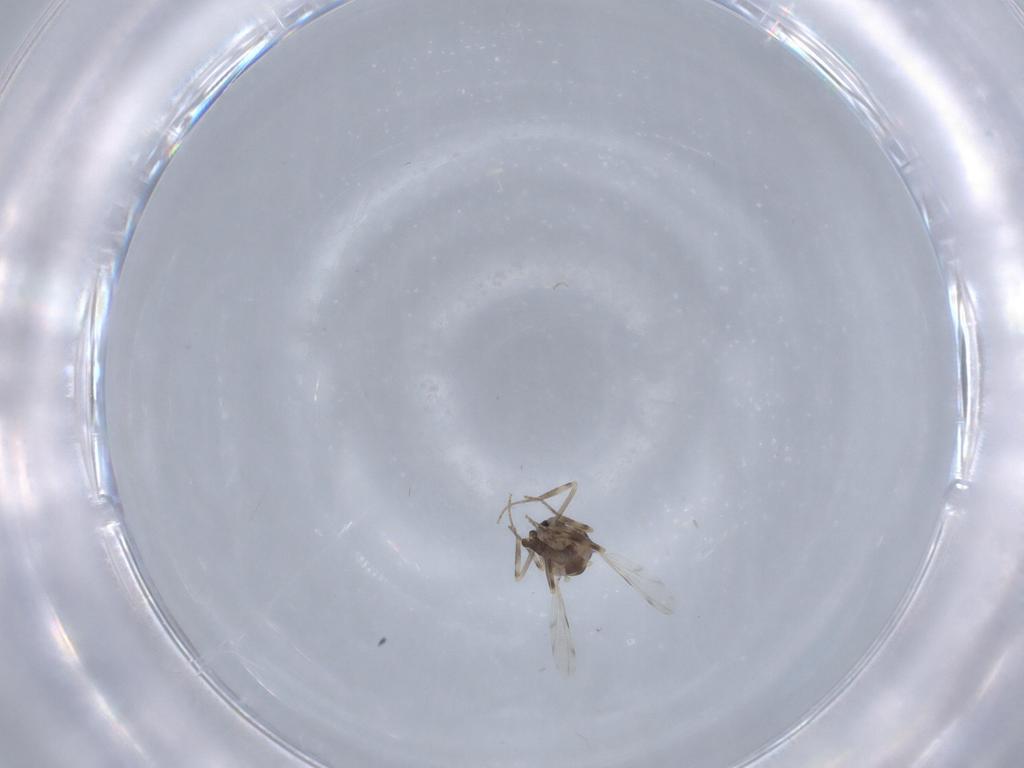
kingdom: Animalia
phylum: Arthropoda
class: Insecta
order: Diptera
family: Ceratopogonidae
